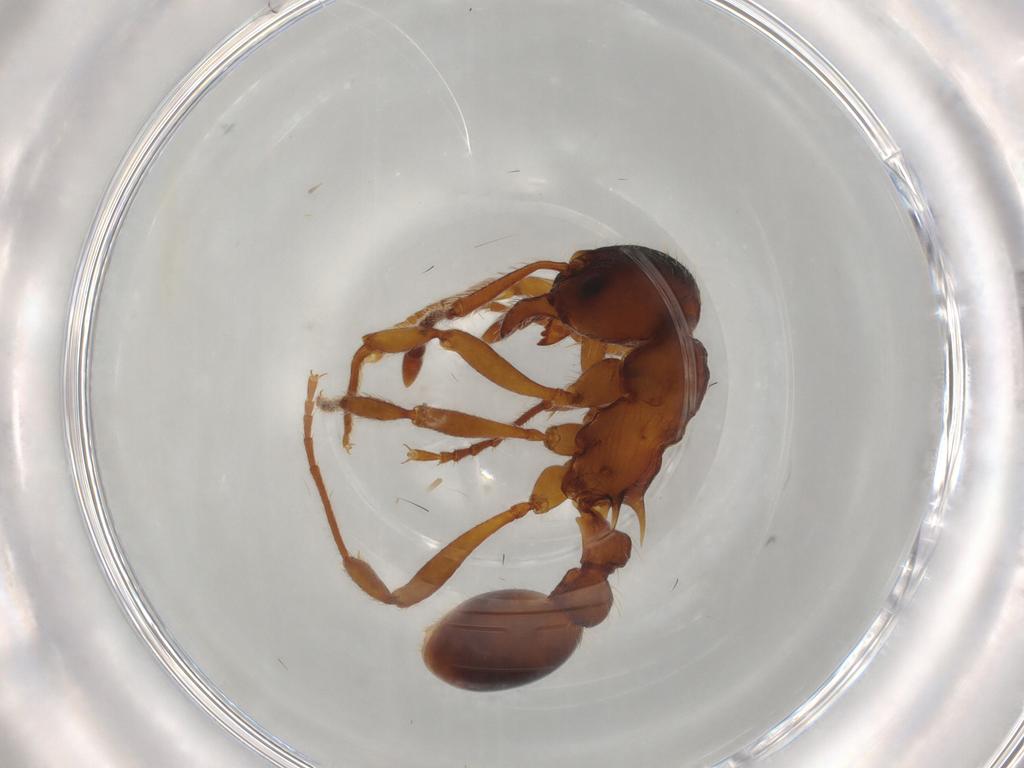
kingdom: Animalia
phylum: Arthropoda
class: Insecta
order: Hymenoptera
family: Formicidae
